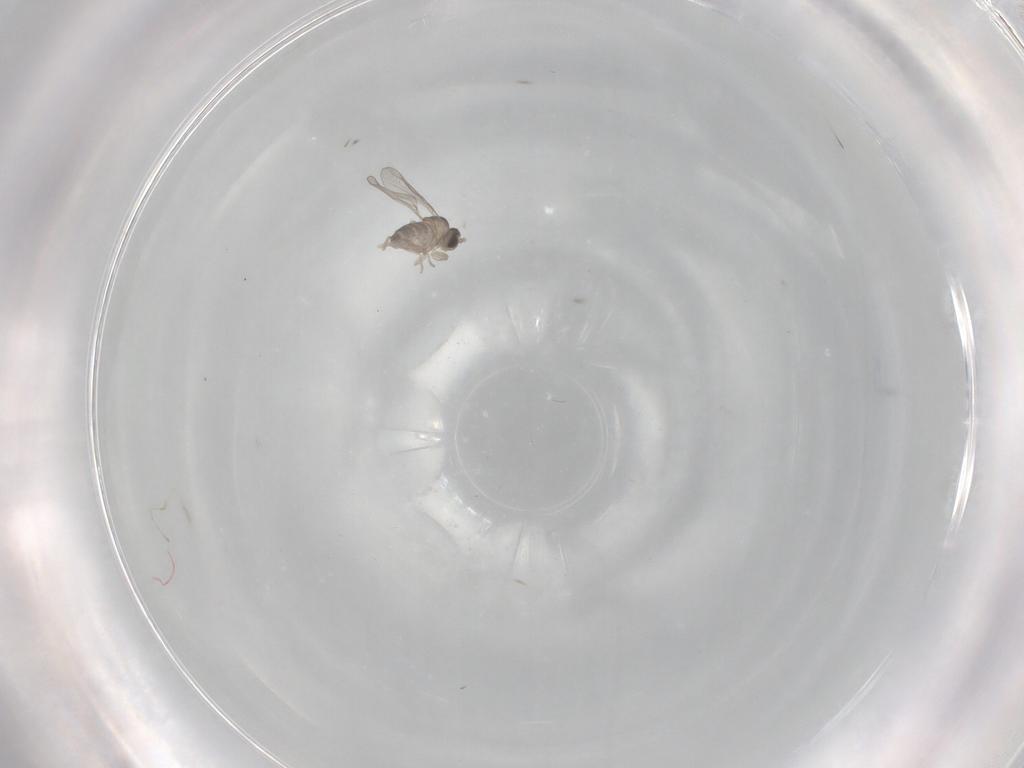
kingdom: Animalia
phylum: Arthropoda
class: Insecta
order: Diptera
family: Cecidomyiidae
